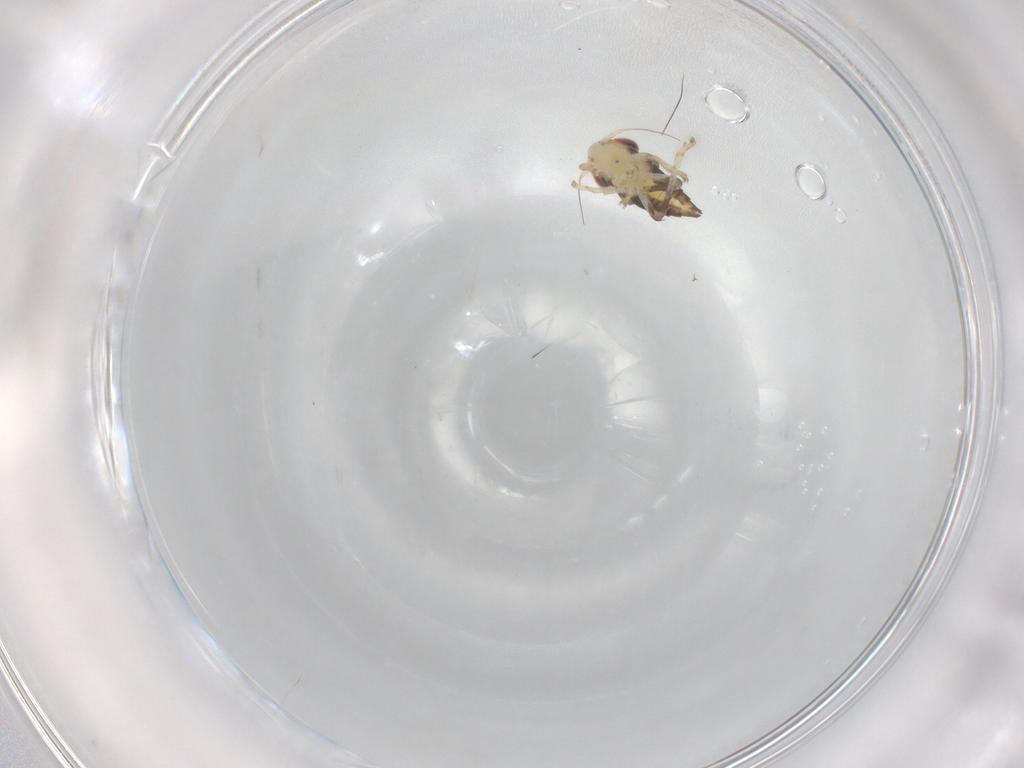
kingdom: Animalia
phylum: Arthropoda
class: Insecta
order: Hemiptera
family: Cicadellidae
